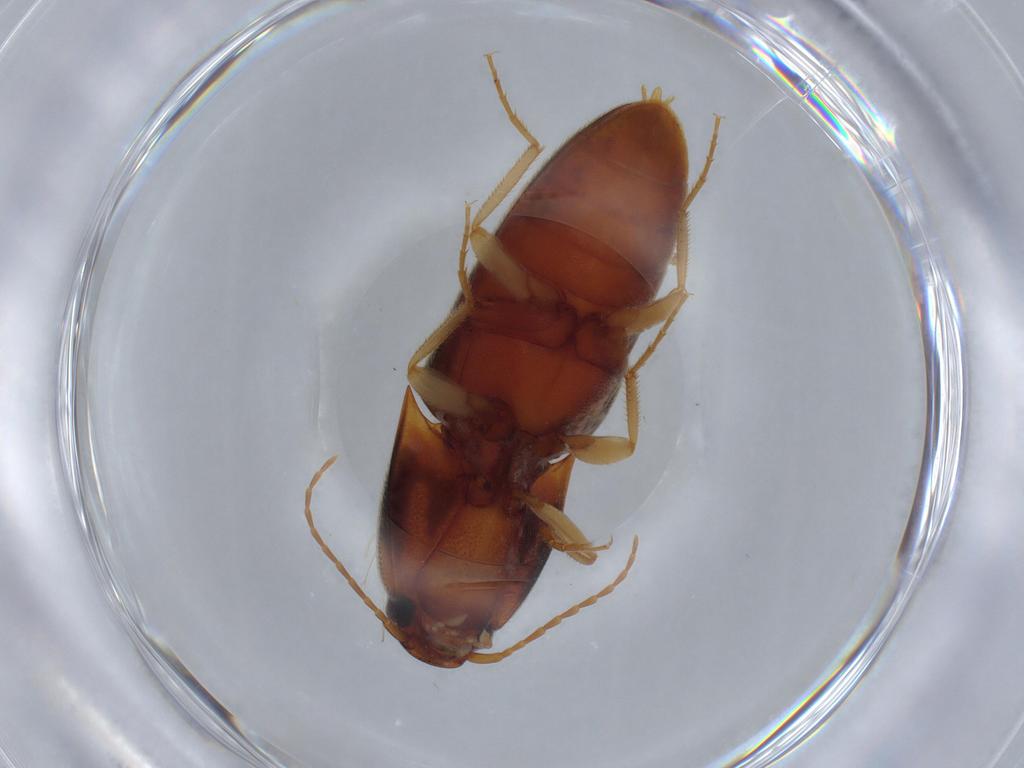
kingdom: Animalia
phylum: Arthropoda
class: Insecta
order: Coleoptera
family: Elateridae
